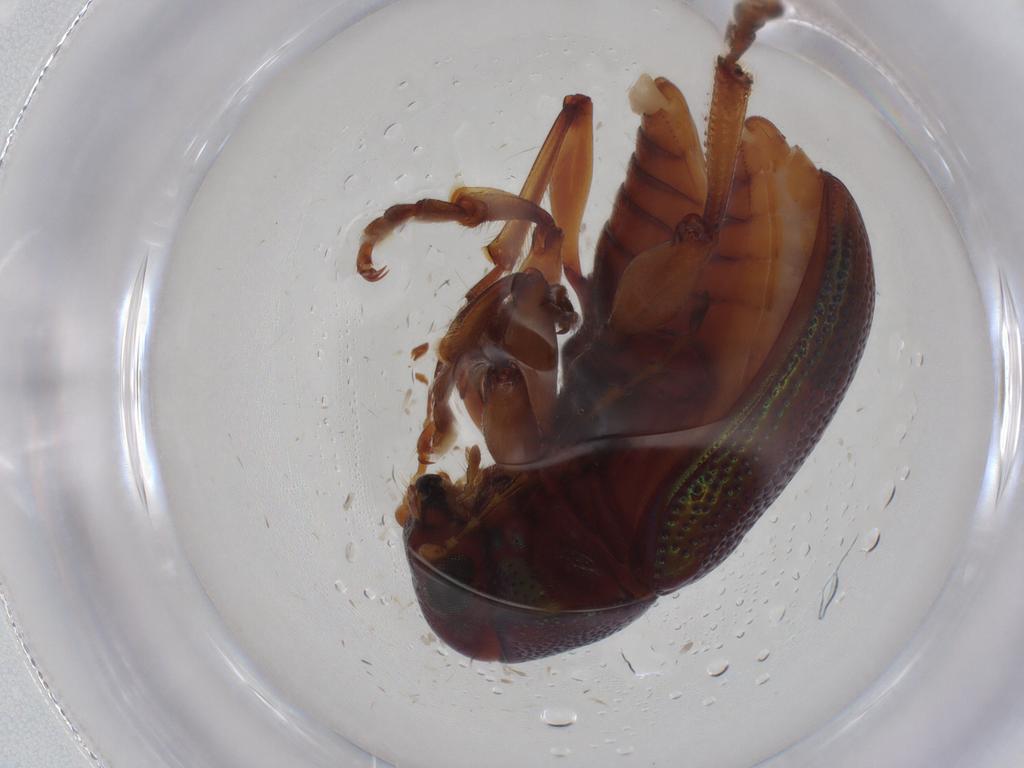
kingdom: Animalia
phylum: Arthropoda
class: Insecta
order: Coleoptera
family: Chrysomelidae
